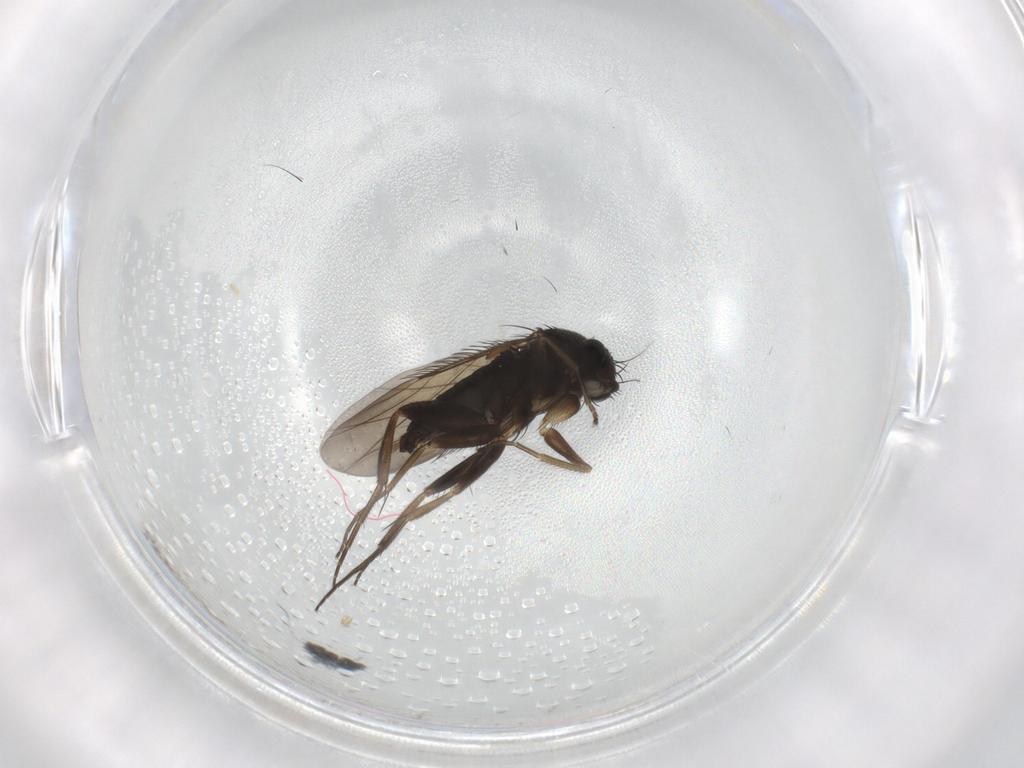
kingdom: Animalia
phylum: Arthropoda
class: Insecta
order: Diptera
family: Phoridae
